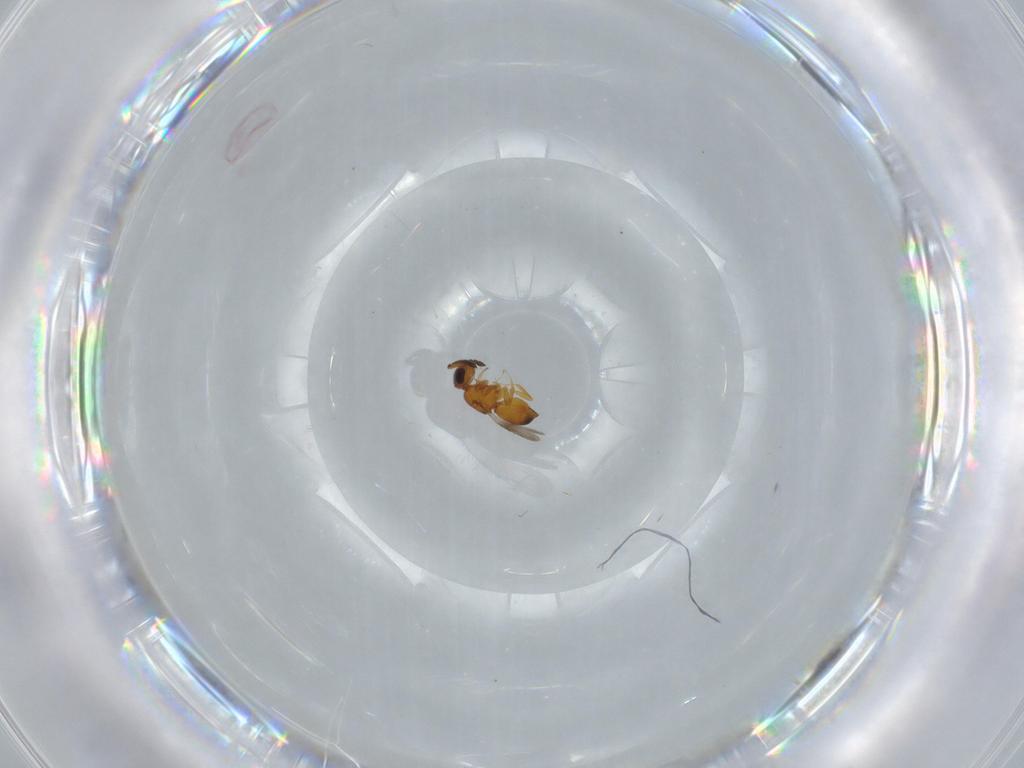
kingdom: Animalia
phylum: Arthropoda
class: Insecta
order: Hymenoptera
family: Ceraphronidae
